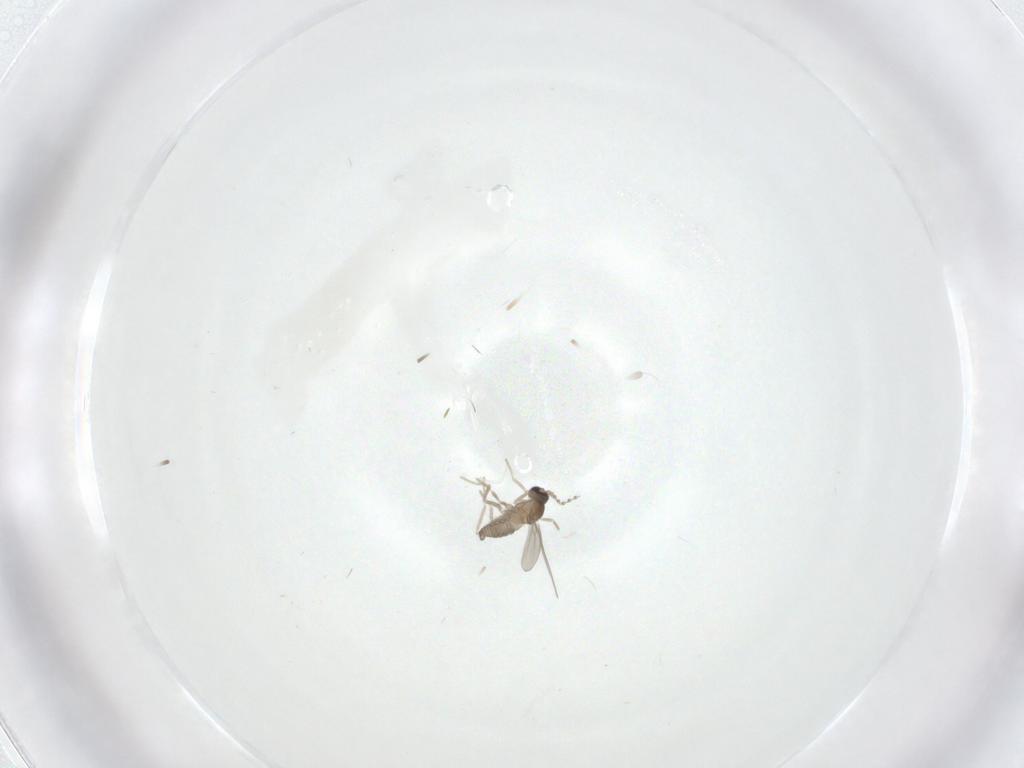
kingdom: Animalia
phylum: Arthropoda
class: Insecta
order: Diptera
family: Cecidomyiidae
